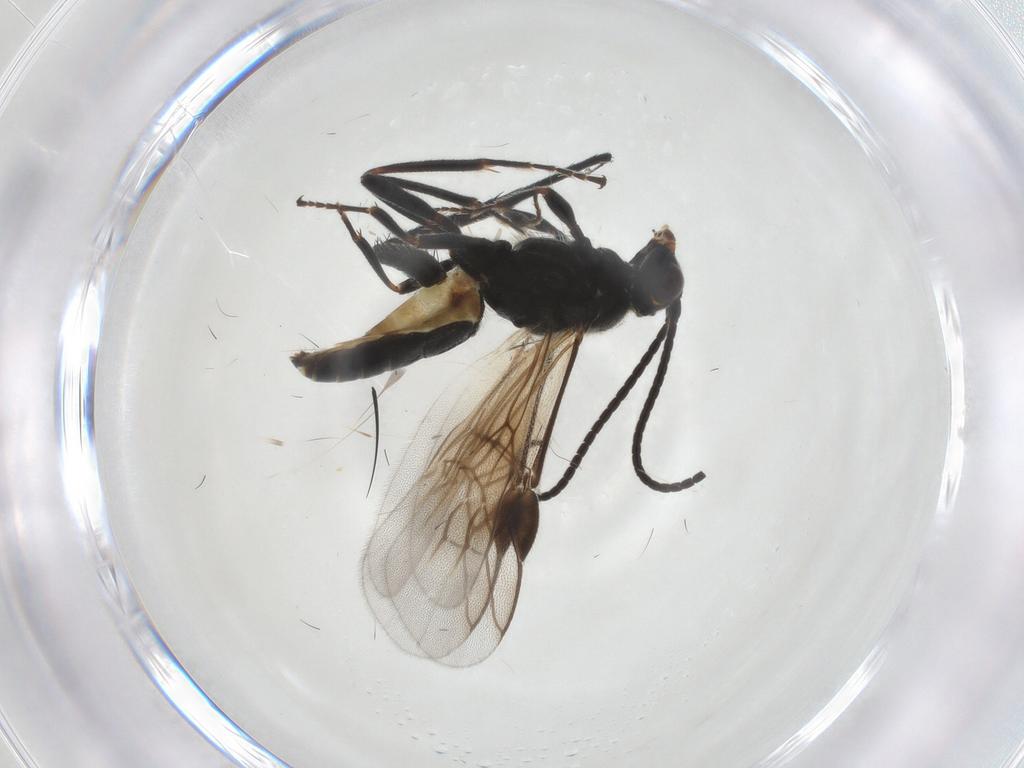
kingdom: Animalia
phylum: Arthropoda
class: Insecta
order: Hymenoptera
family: Braconidae
